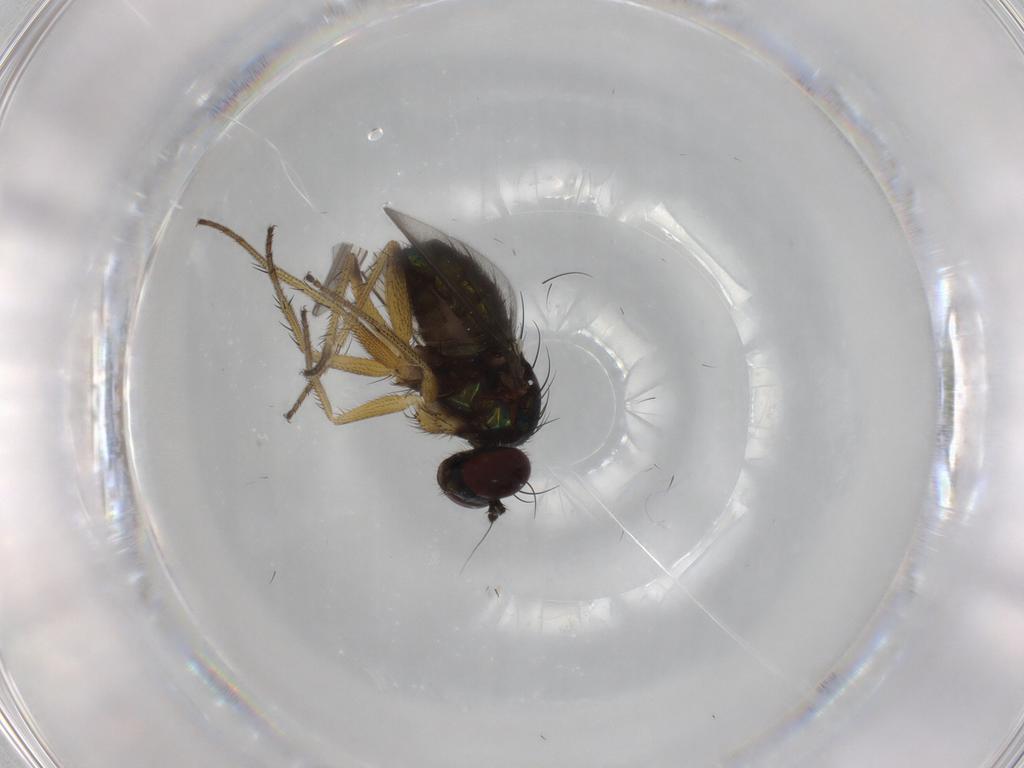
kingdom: Animalia
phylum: Arthropoda
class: Insecta
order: Diptera
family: Dolichopodidae
